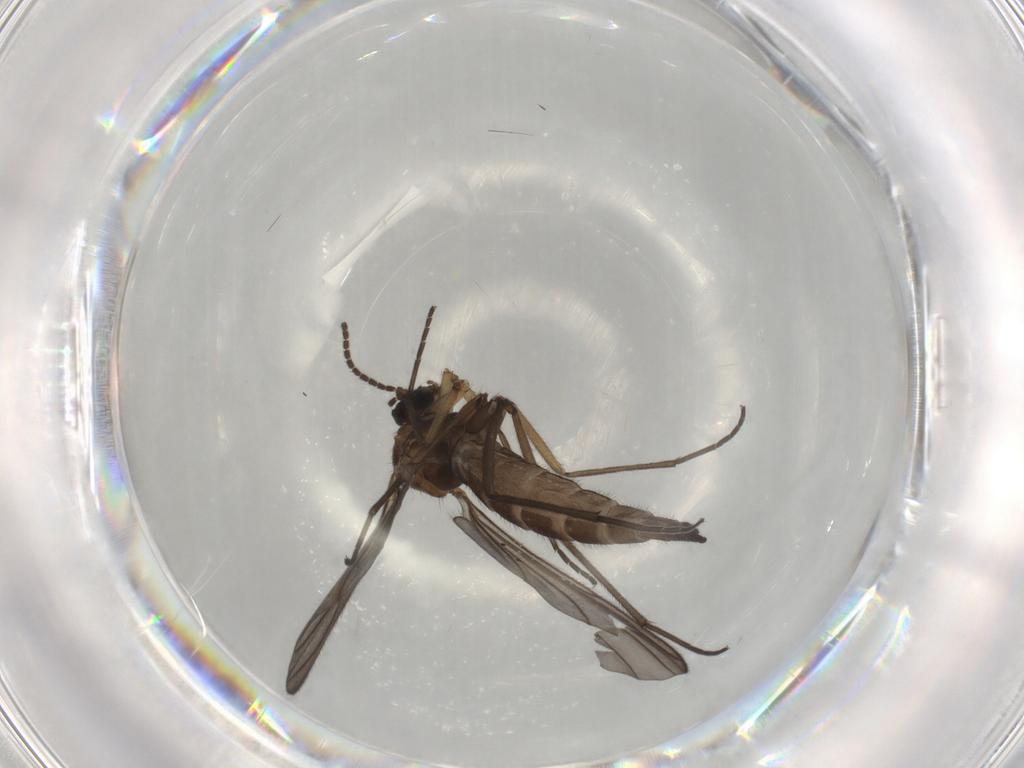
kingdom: Animalia
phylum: Arthropoda
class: Insecta
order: Diptera
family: Sciaridae
